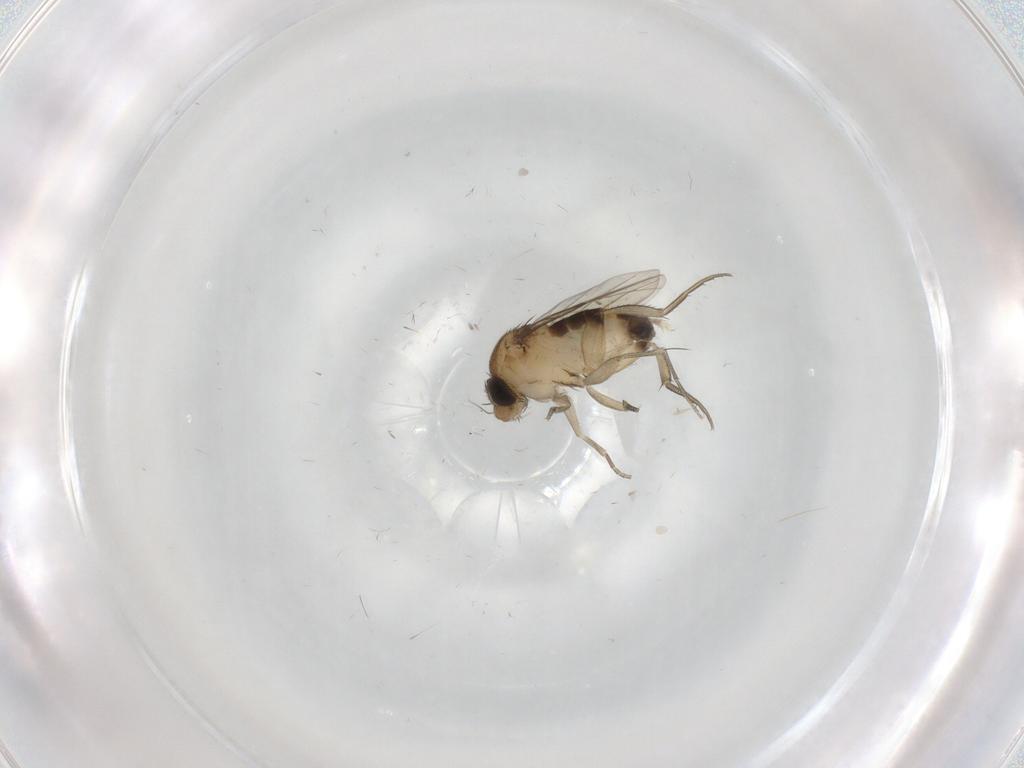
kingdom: Animalia
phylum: Arthropoda
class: Insecta
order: Diptera
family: Phoridae
